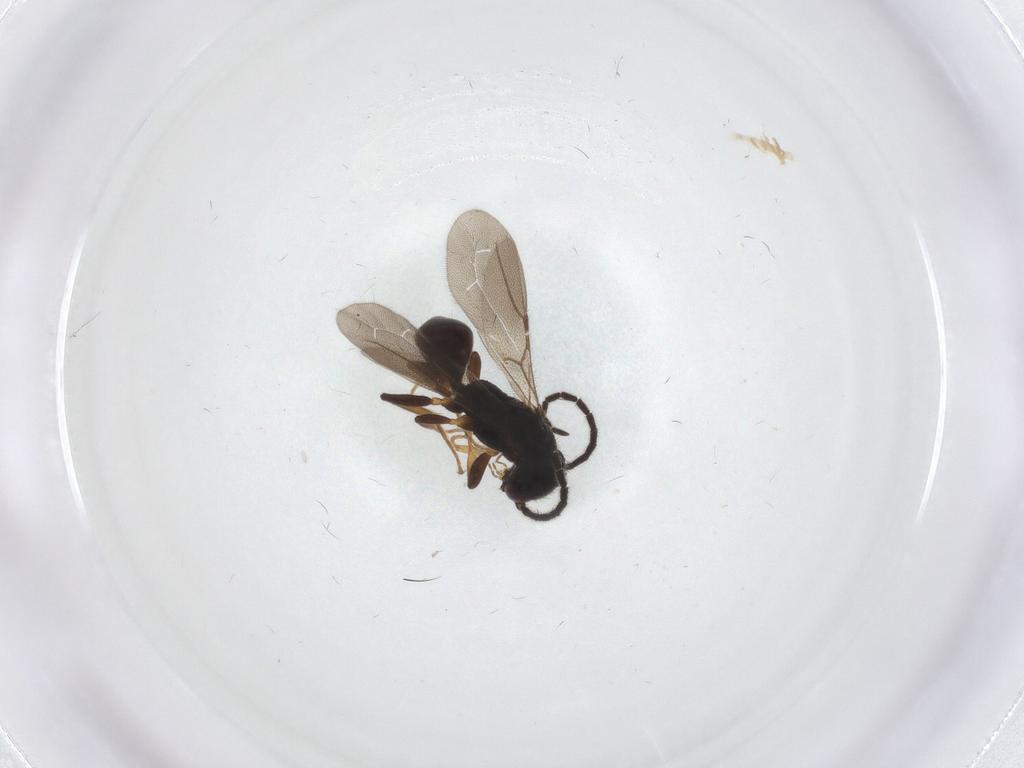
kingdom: Animalia
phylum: Arthropoda
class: Insecta
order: Hymenoptera
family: Bethylidae
